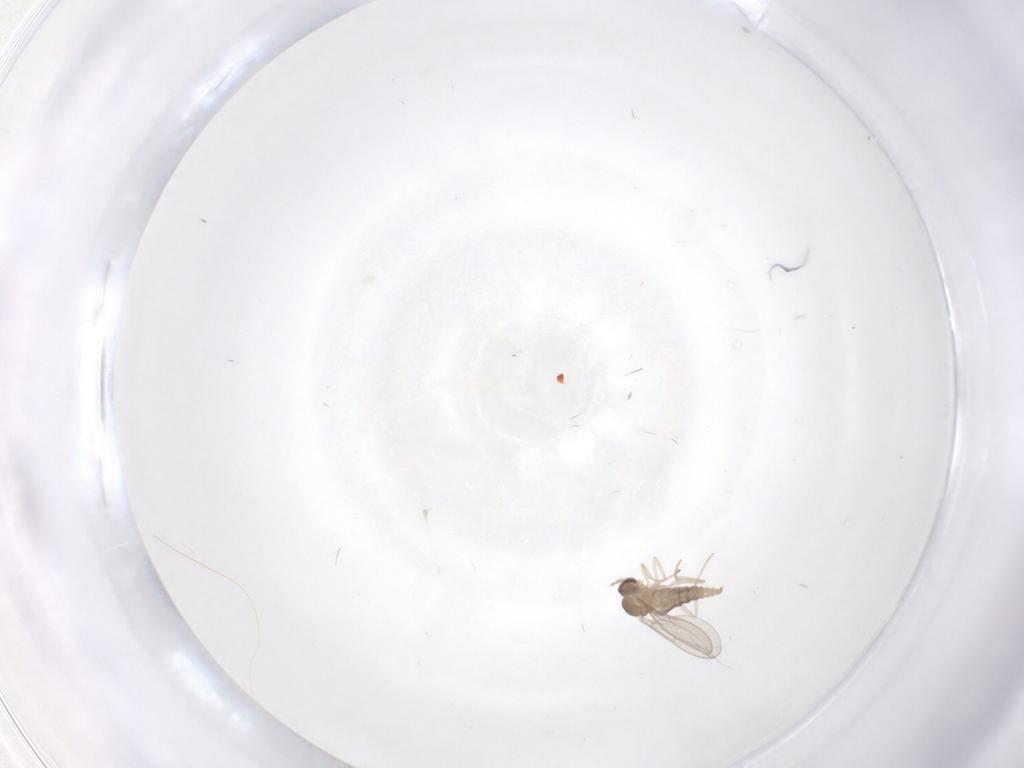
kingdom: Animalia
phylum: Arthropoda
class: Insecta
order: Diptera
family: Cecidomyiidae
